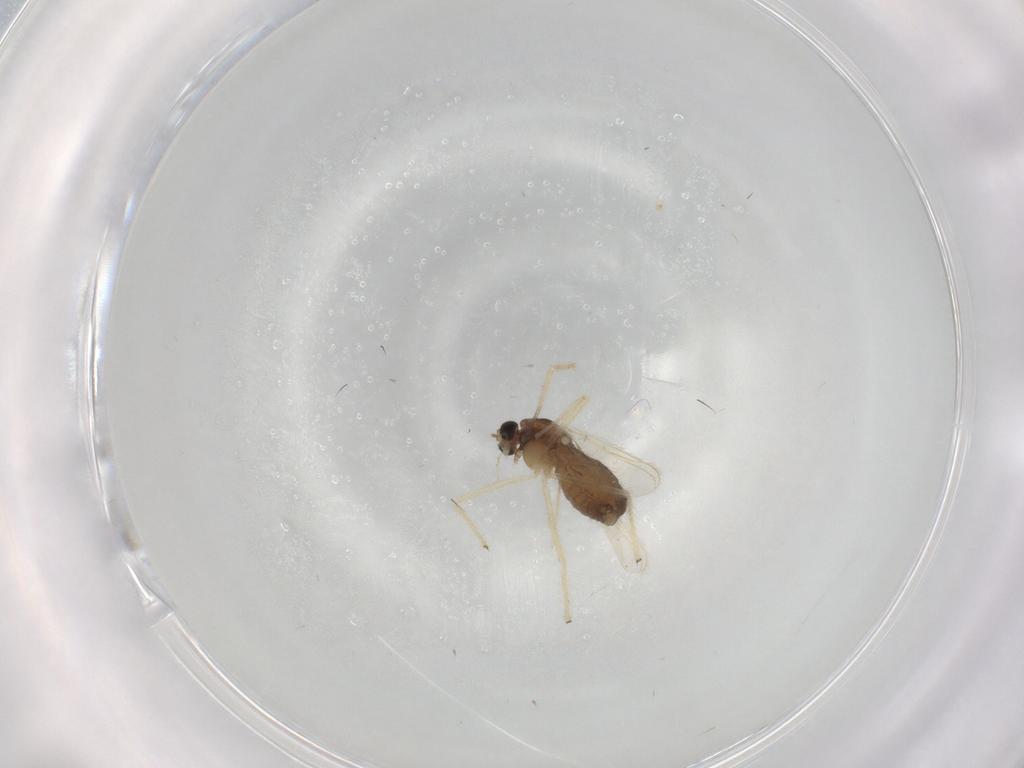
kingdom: Animalia
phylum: Arthropoda
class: Insecta
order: Diptera
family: Chironomidae
